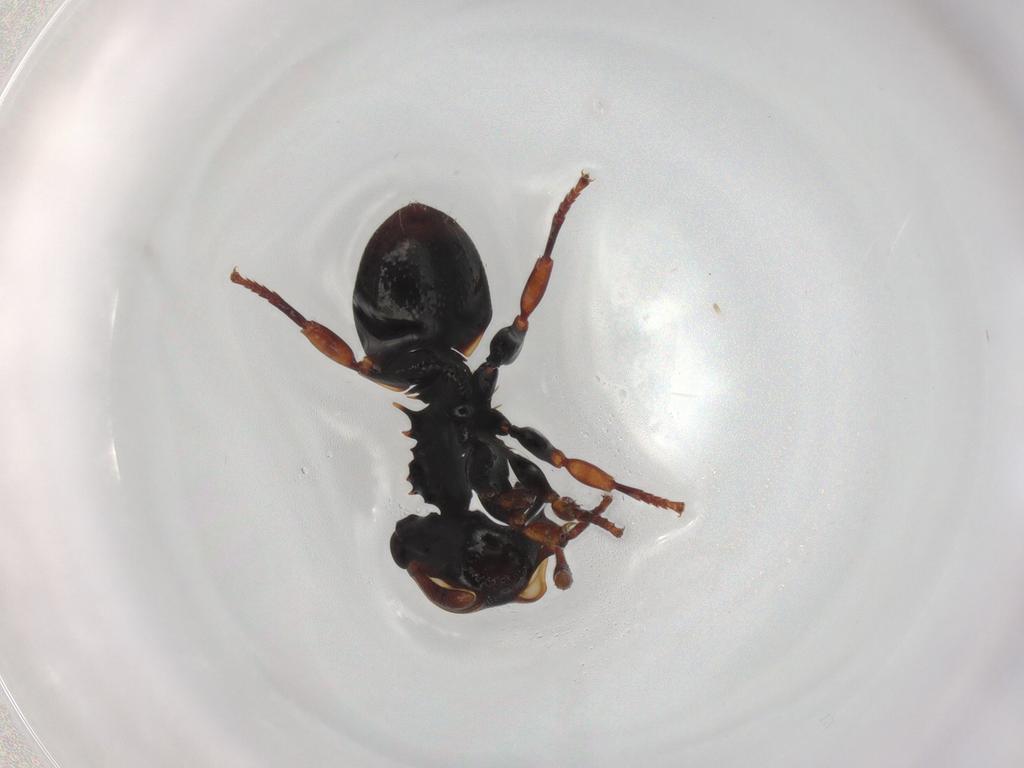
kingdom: Animalia
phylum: Arthropoda
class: Insecta
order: Hymenoptera
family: Formicidae
